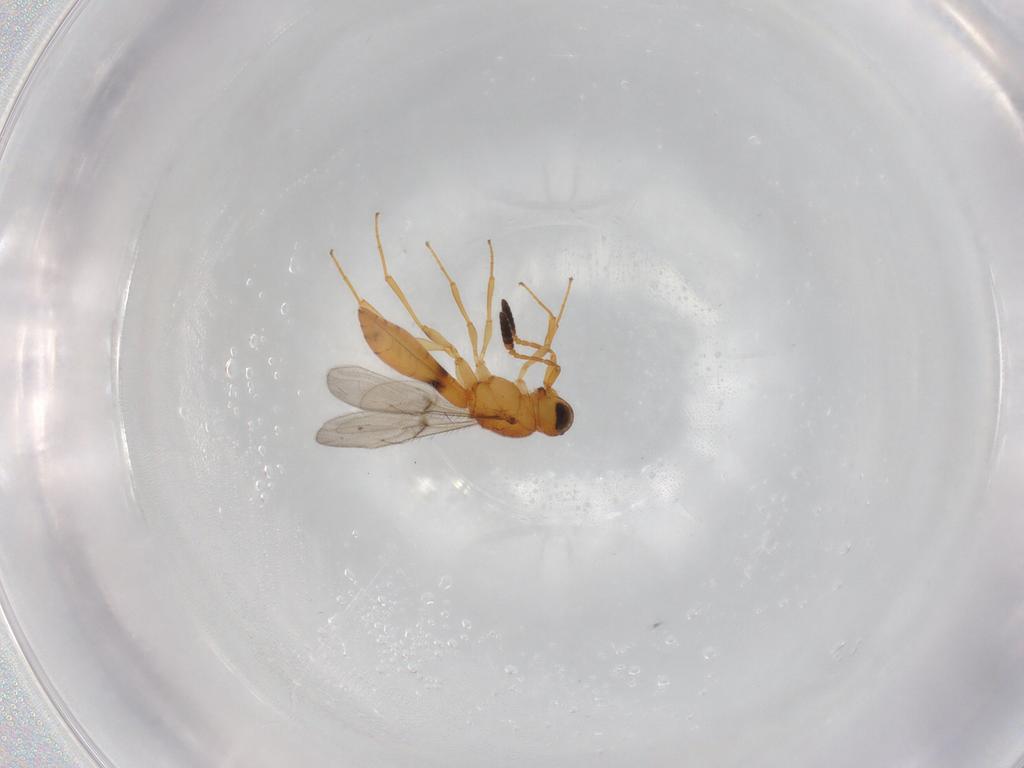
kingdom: Animalia
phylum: Arthropoda
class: Insecta
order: Hymenoptera
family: Scelionidae
